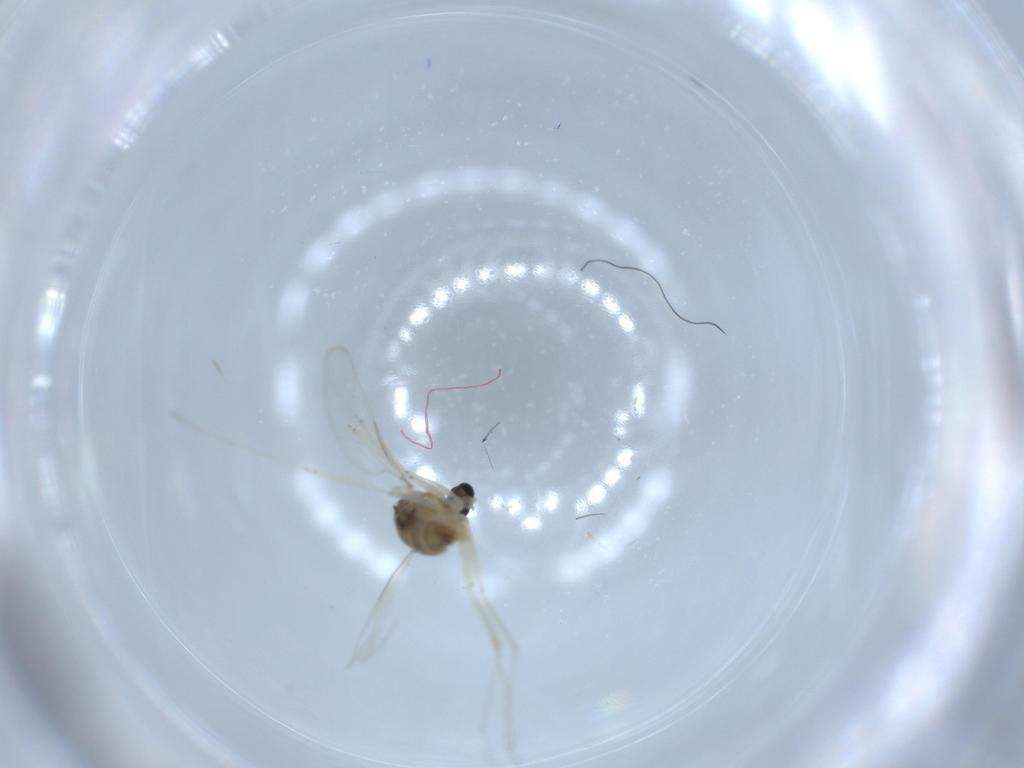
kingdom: Animalia
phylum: Arthropoda
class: Insecta
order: Diptera
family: Cecidomyiidae
